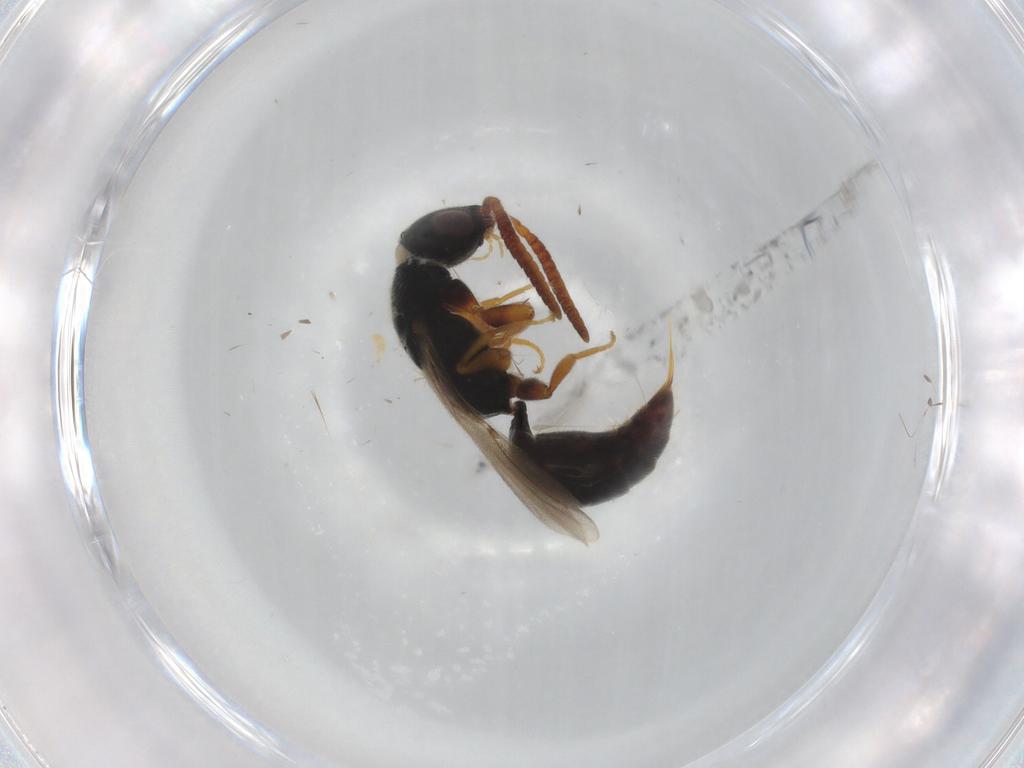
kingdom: Animalia
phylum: Arthropoda
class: Insecta
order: Hymenoptera
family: Bethylidae
